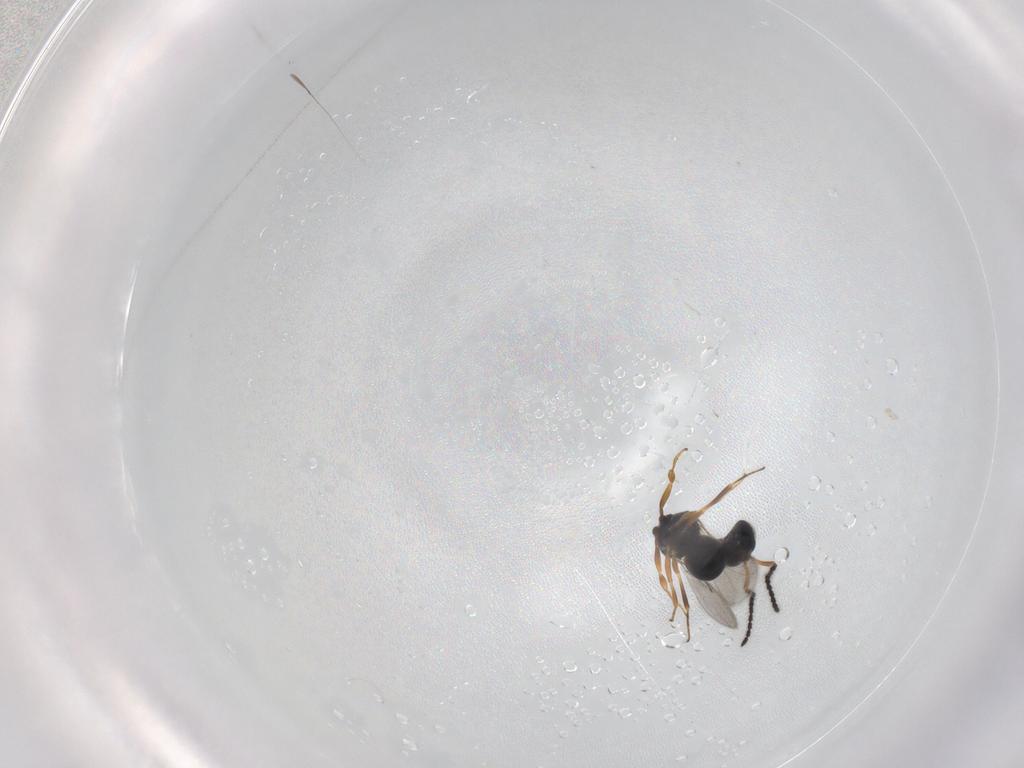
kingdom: Animalia
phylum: Arthropoda
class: Insecta
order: Hymenoptera
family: Scelionidae
